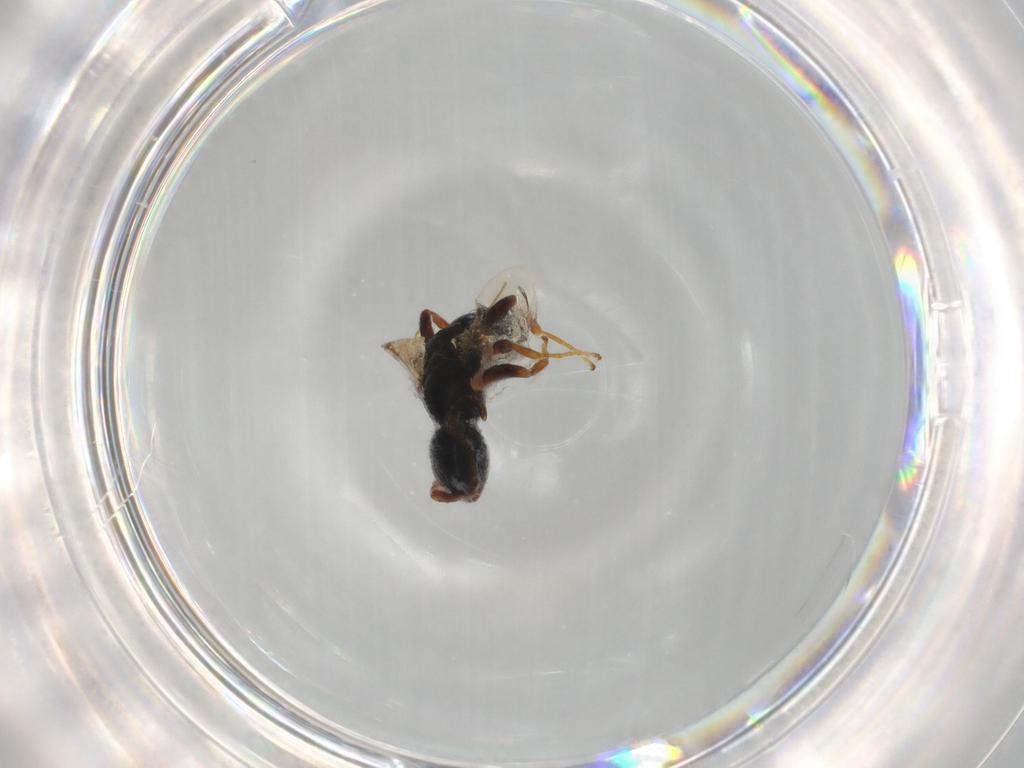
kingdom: Animalia
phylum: Arthropoda
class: Insecta
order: Hymenoptera
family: Bethylidae
